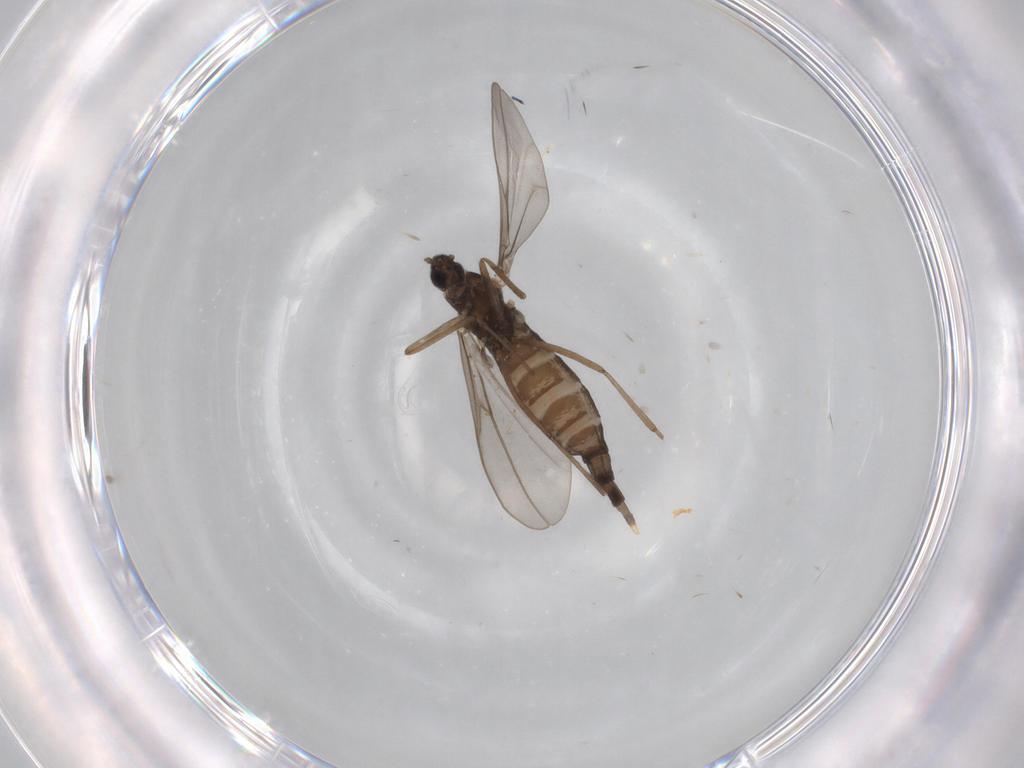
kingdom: Animalia
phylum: Arthropoda
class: Insecta
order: Diptera
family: Cecidomyiidae
